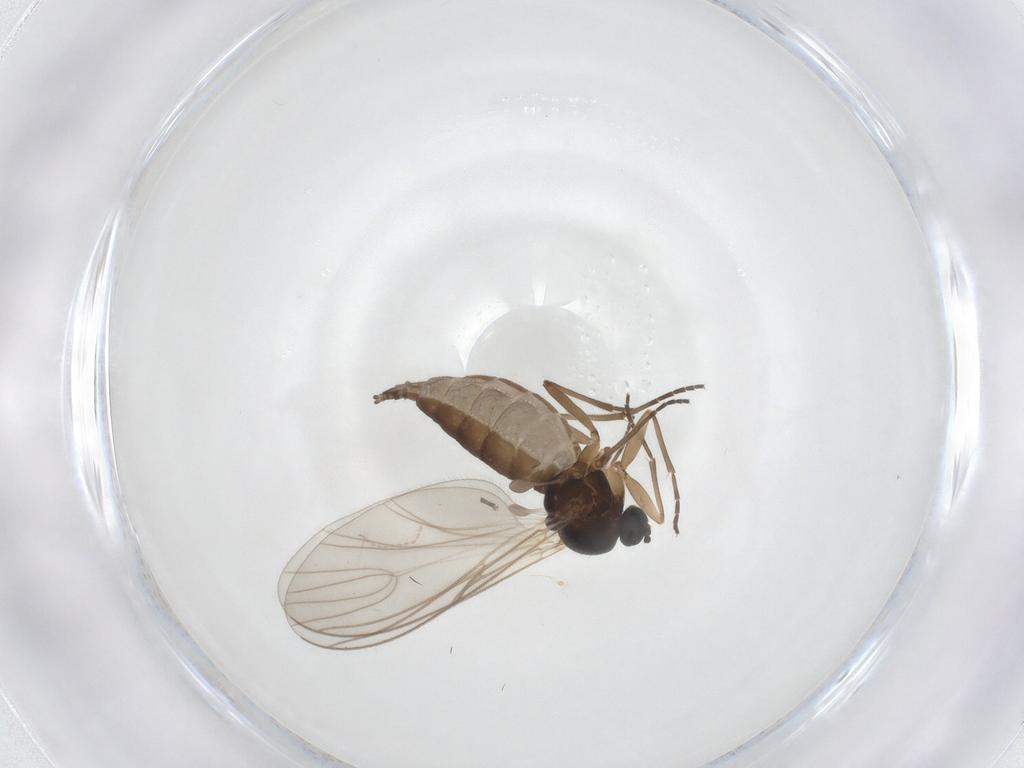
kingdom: Animalia
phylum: Arthropoda
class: Insecta
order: Diptera
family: Sciaridae
